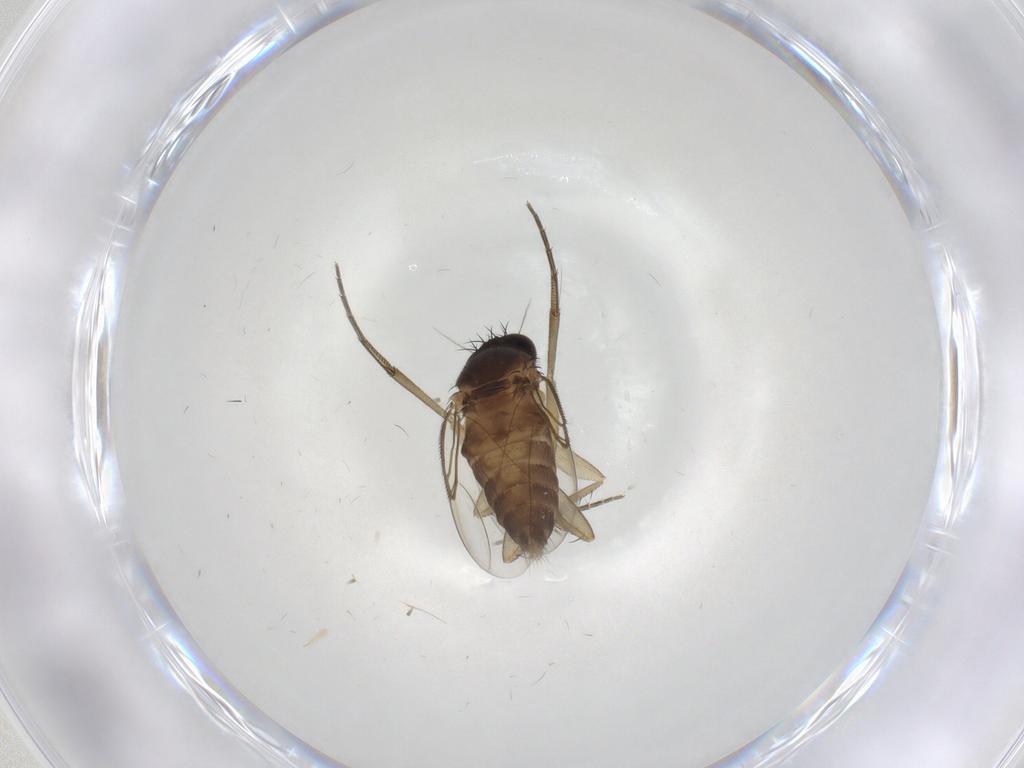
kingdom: Animalia
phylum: Arthropoda
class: Insecta
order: Diptera
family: Phoridae
